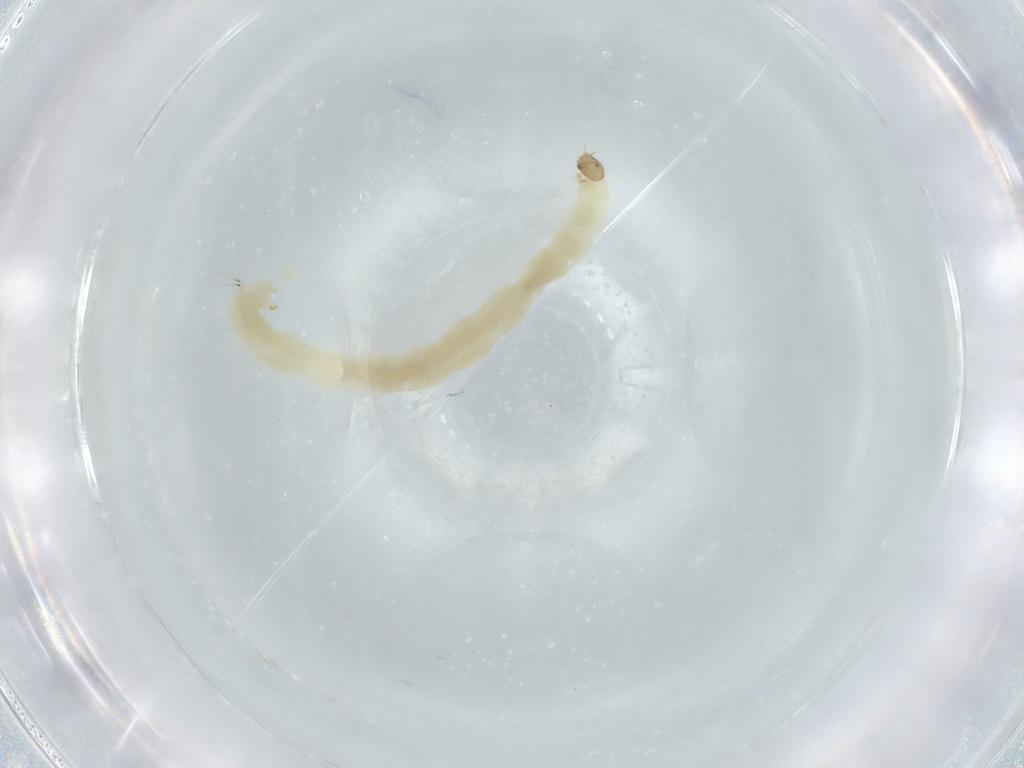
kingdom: Animalia
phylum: Arthropoda
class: Insecta
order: Diptera
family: Chironomidae
